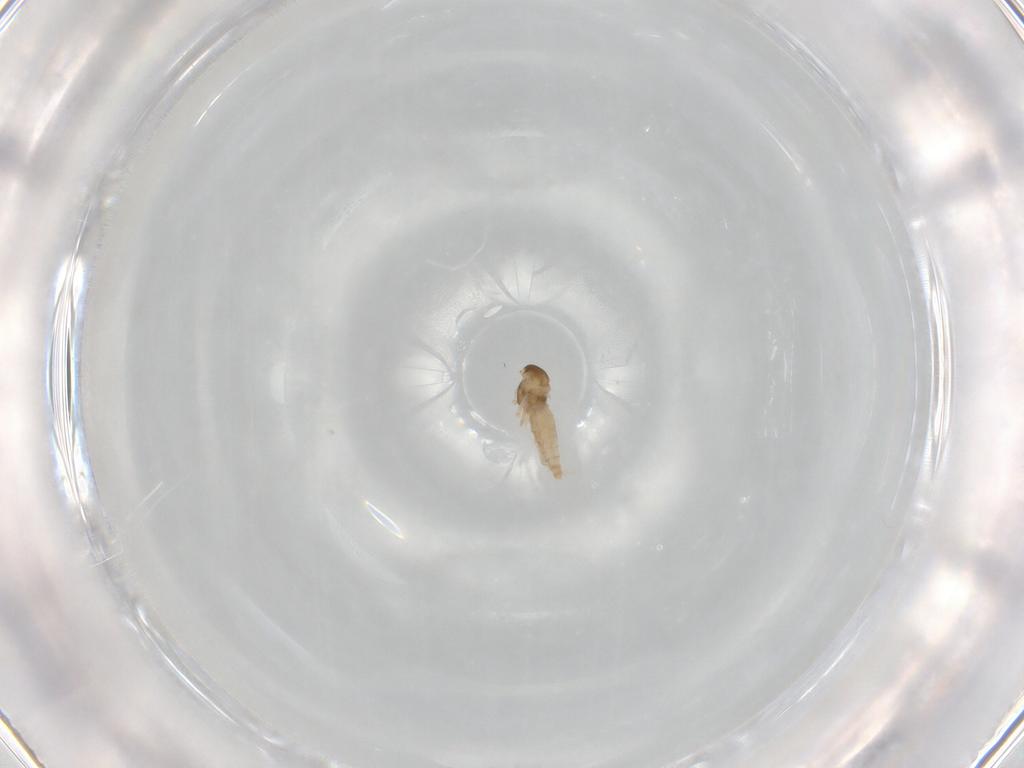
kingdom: Animalia
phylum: Arthropoda
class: Insecta
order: Diptera
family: Cecidomyiidae
